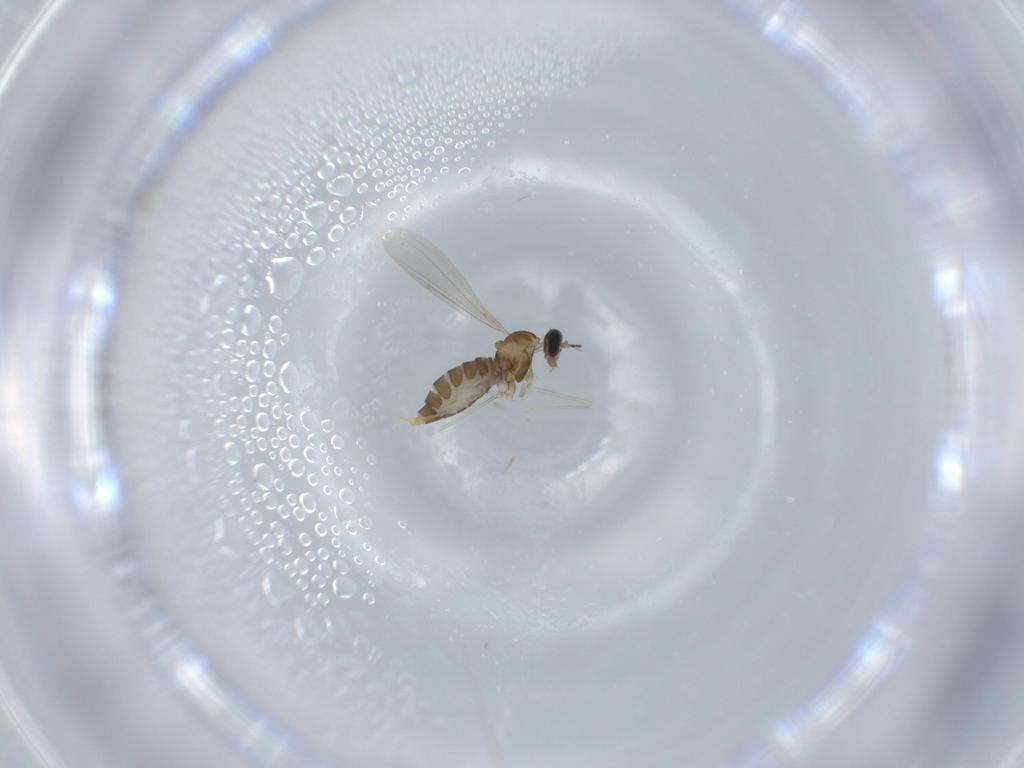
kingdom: Animalia
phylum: Arthropoda
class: Insecta
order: Diptera
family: Cecidomyiidae
